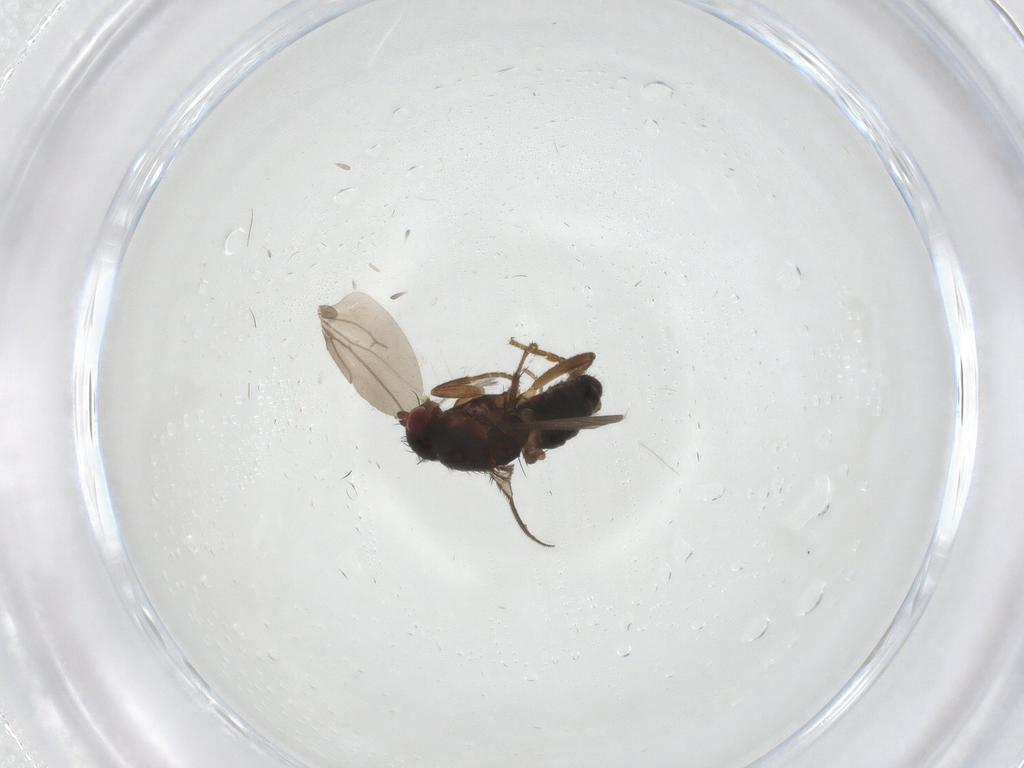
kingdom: Animalia
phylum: Arthropoda
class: Insecta
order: Diptera
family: Sphaeroceridae
